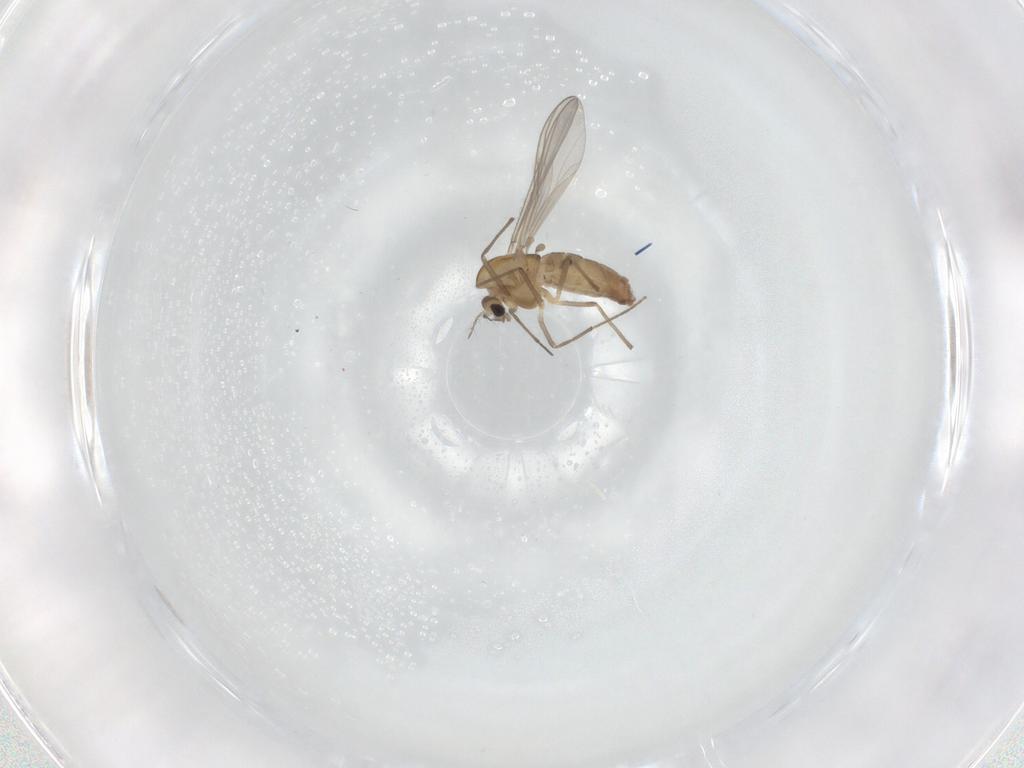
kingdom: Animalia
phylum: Arthropoda
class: Insecta
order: Diptera
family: Chironomidae
